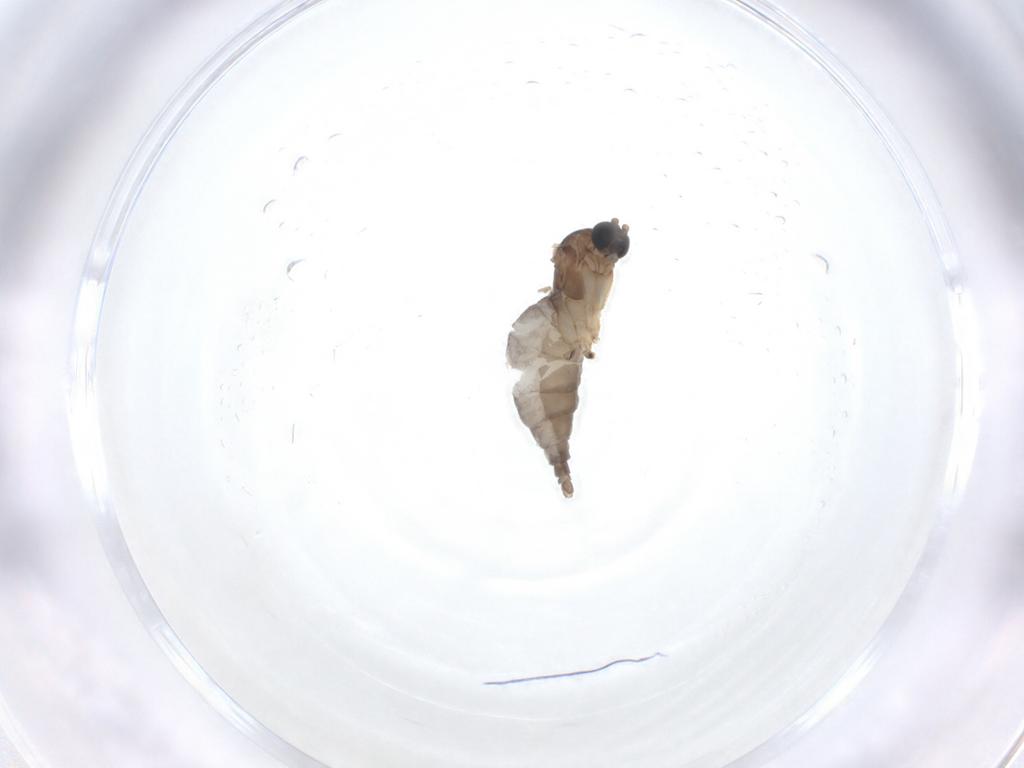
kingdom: Animalia
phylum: Arthropoda
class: Insecta
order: Diptera
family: Sciaridae
